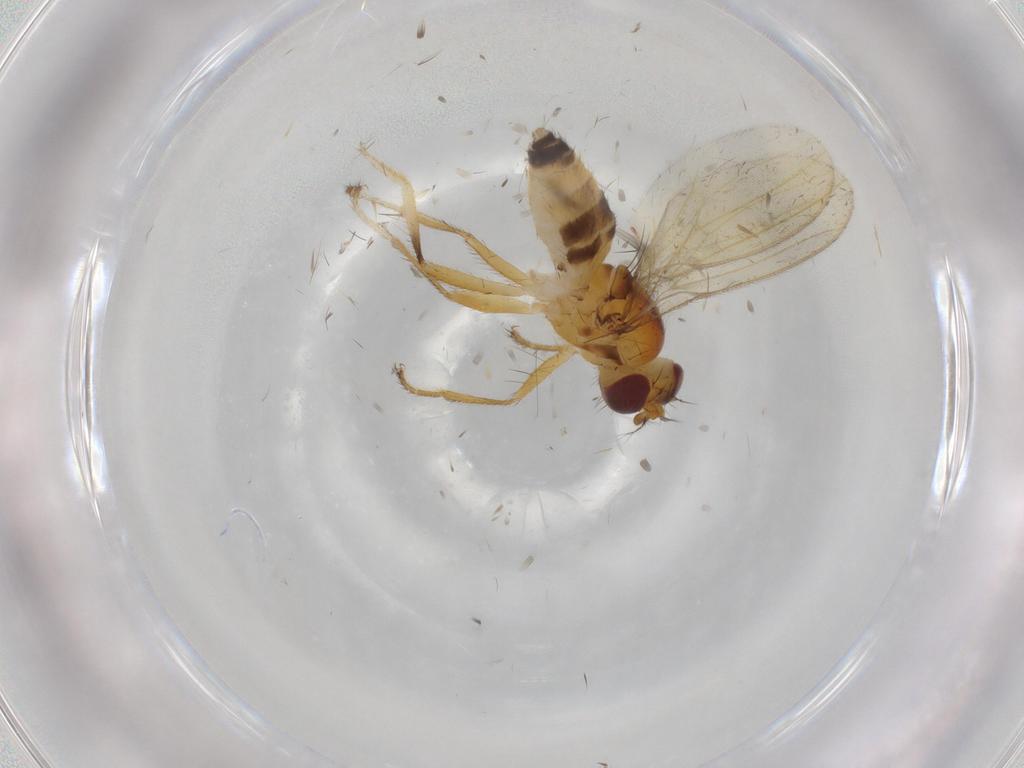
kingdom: Animalia
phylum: Arthropoda
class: Insecta
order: Diptera
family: Periscelididae
